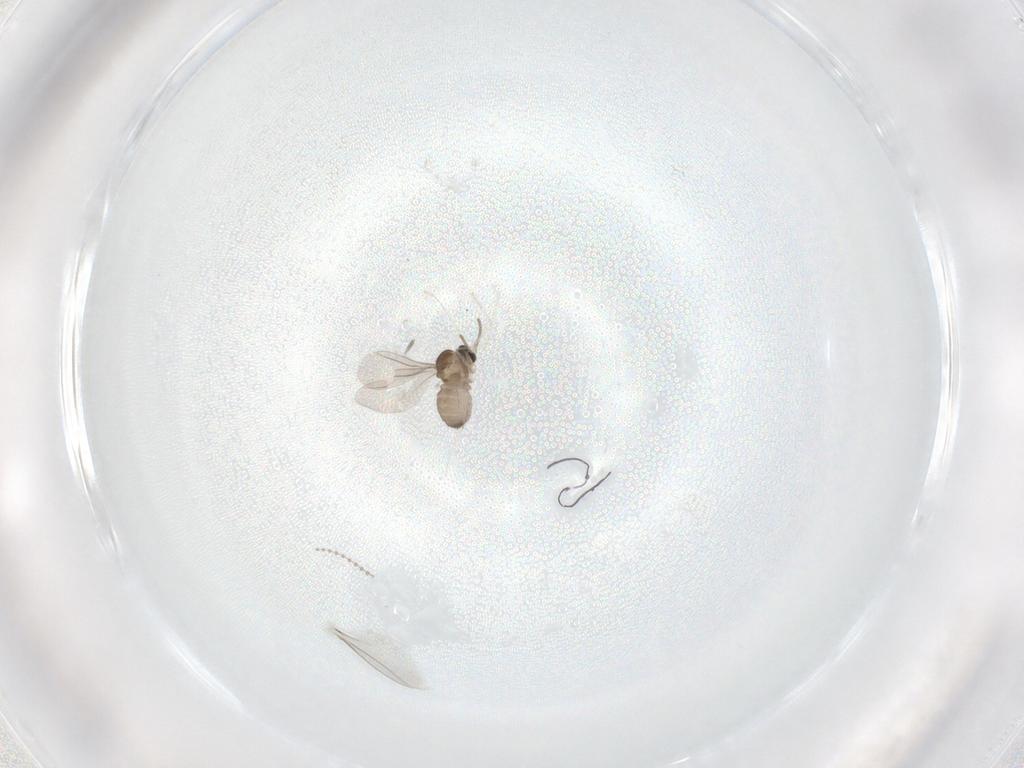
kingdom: Animalia
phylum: Arthropoda
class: Insecta
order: Diptera
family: Cecidomyiidae
